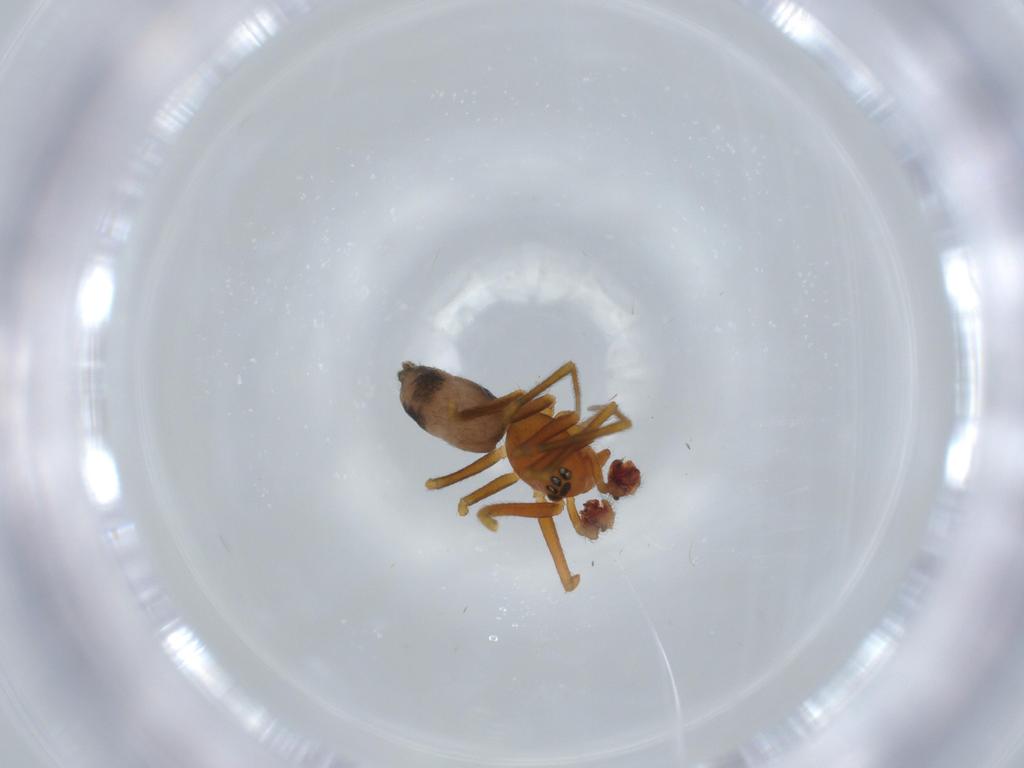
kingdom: Animalia
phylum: Arthropoda
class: Arachnida
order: Araneae
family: Linyphiidae
